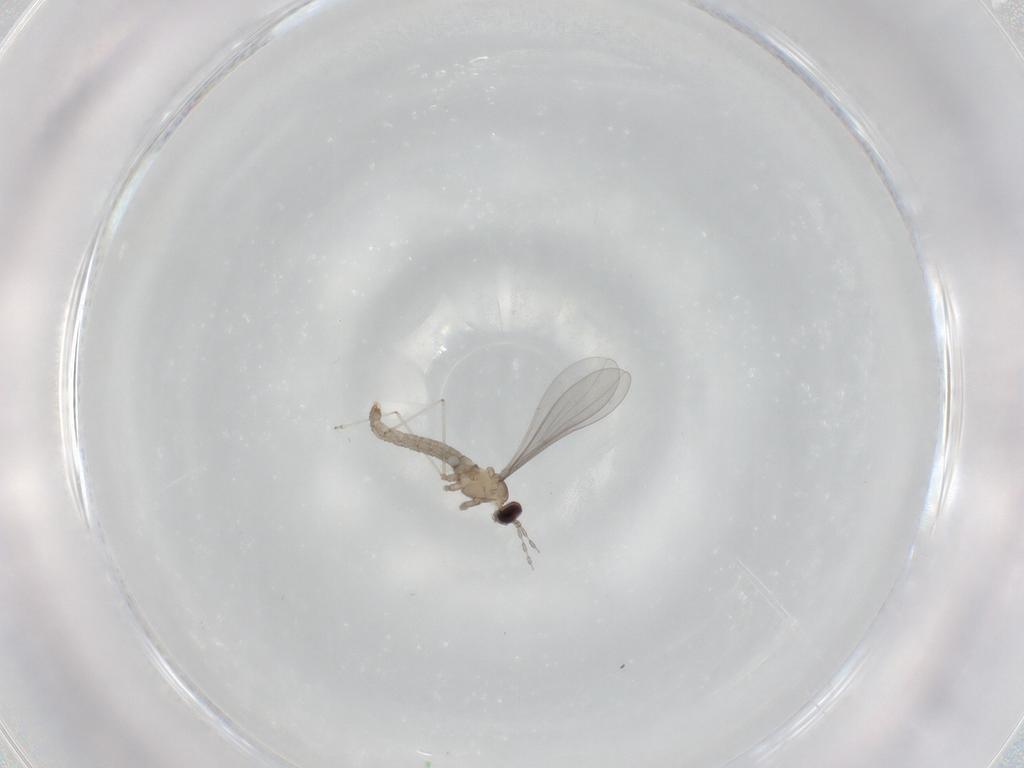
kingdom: Animalia
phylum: Arthropoda
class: Insecta
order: Diptera
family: Cecidomyiidae
